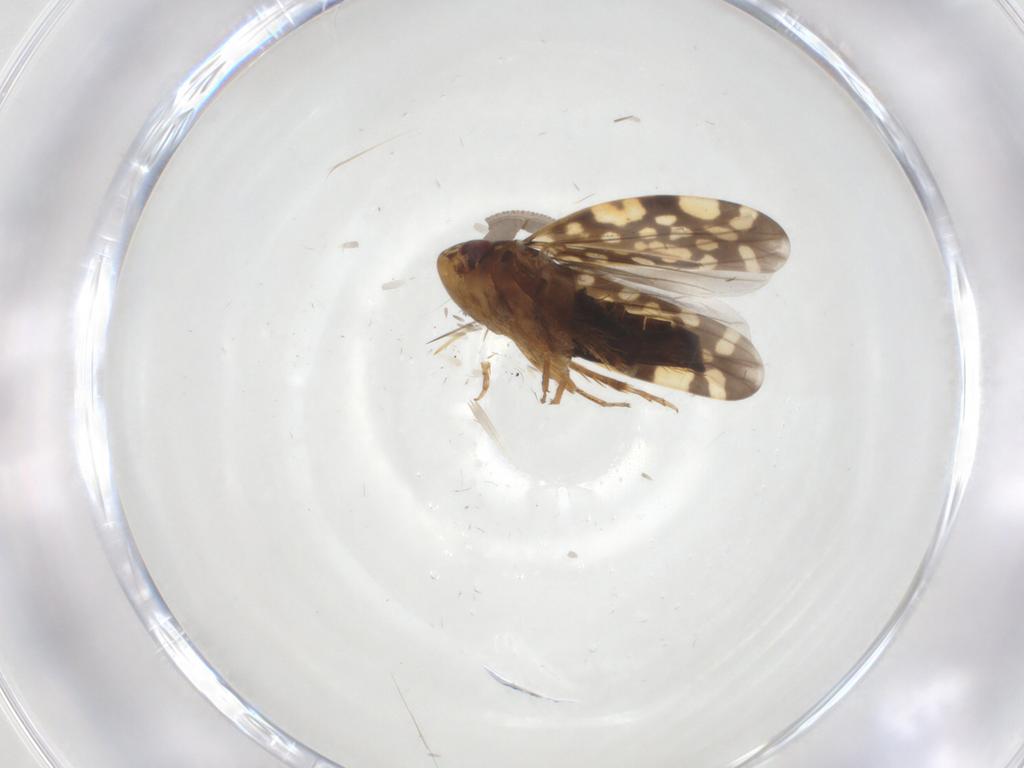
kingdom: Animalia
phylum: Arthropoda
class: Insecta
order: Hemiptera
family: Cicadellidae
